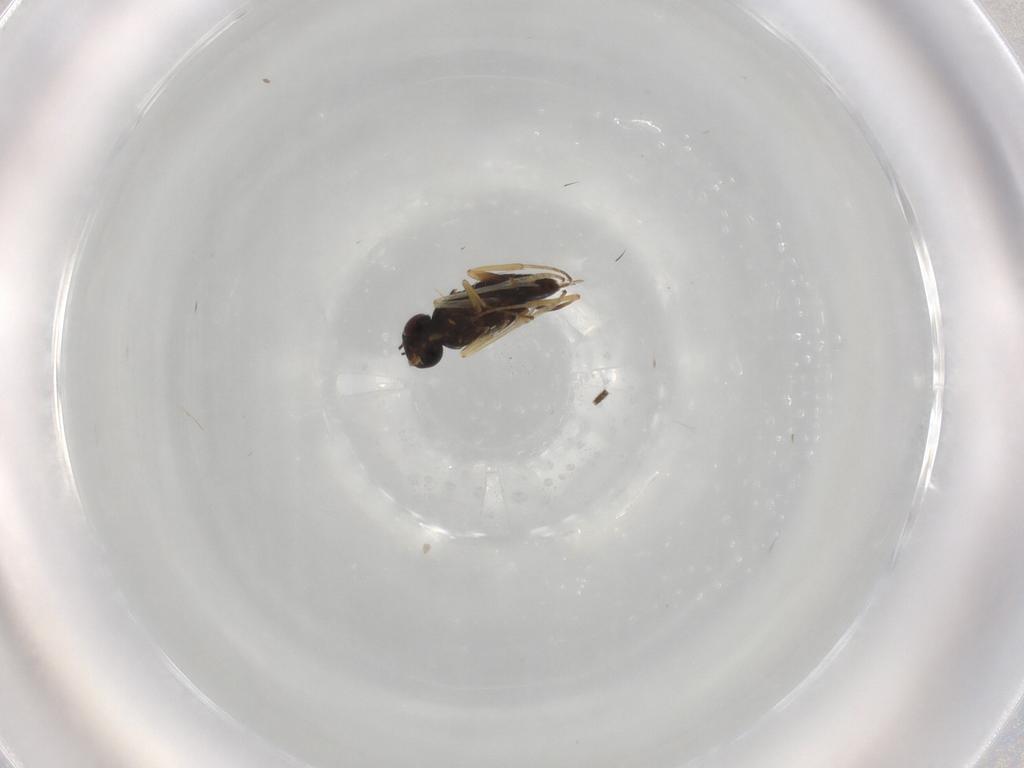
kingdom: Animalia
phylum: Arthropoda
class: Insecta
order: Diptera
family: Glossinidae
